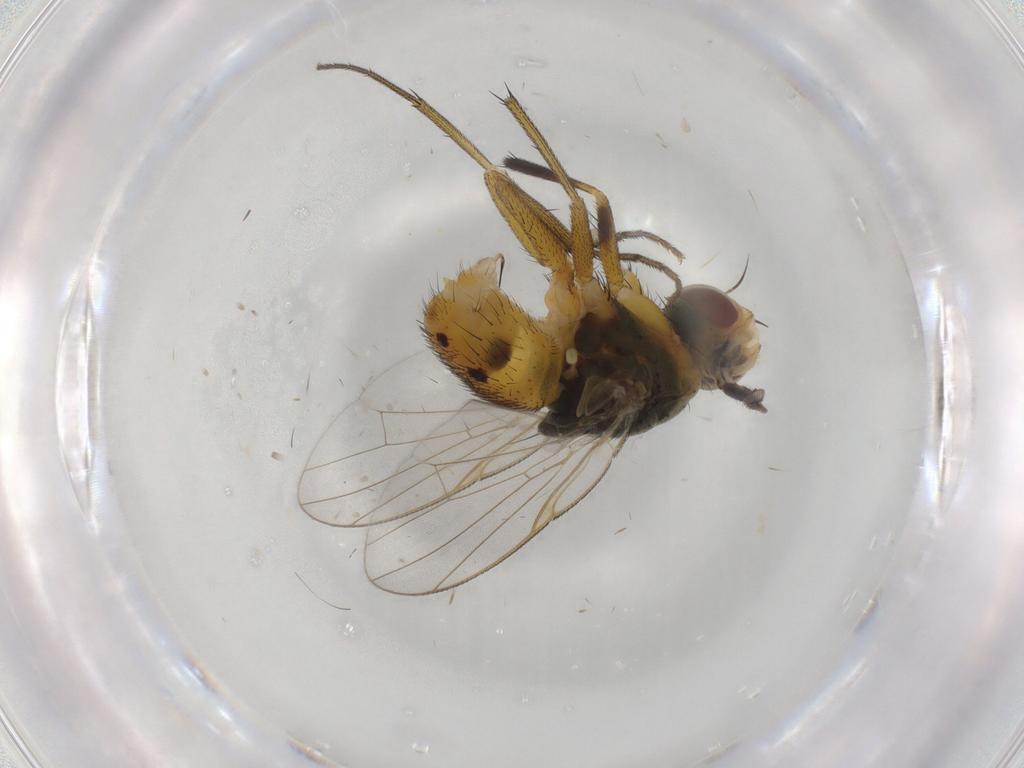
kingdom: Animalia
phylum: Arthropoda
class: Insecta
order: Diptera
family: Muscidae
